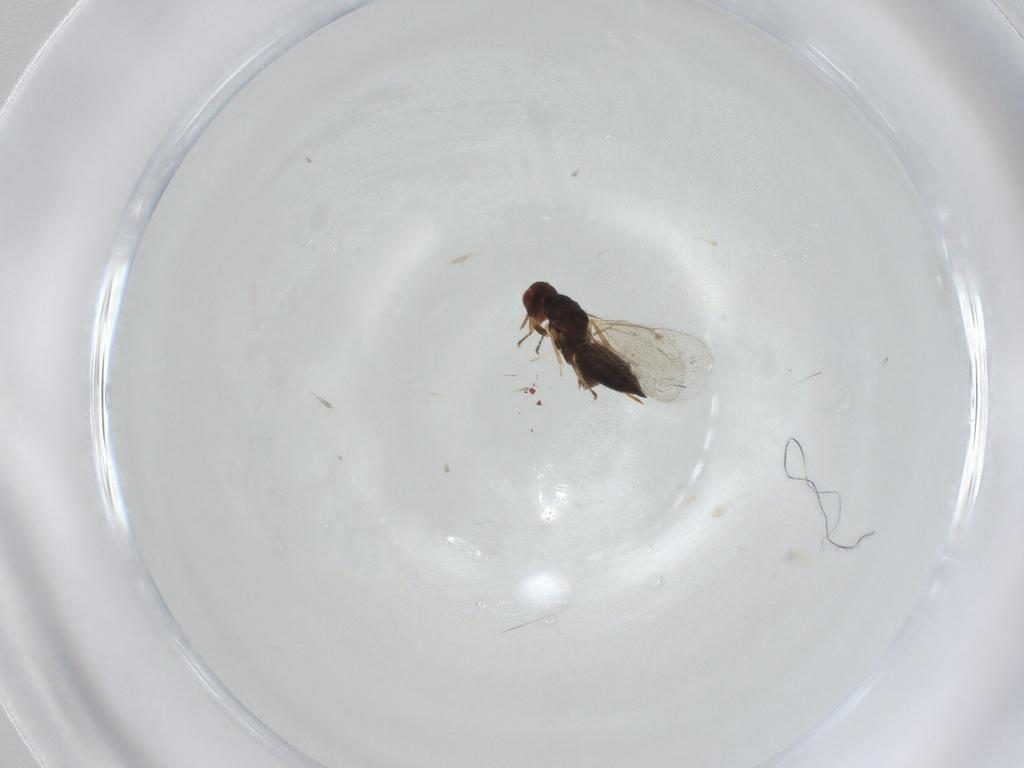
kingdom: Animalia
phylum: Arthropoda
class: Insecta
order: Hymenoptera
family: Eulophidae
